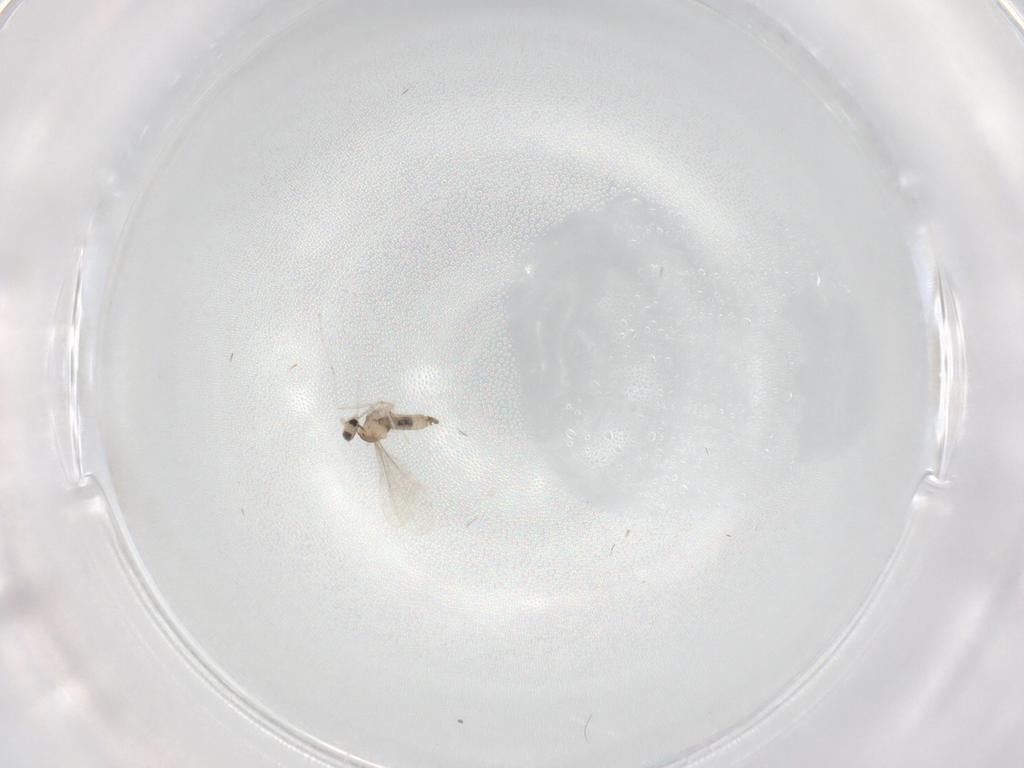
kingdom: Animalia
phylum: Arthropoda
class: Insecta
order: Diptera
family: Cecidomyiidae
